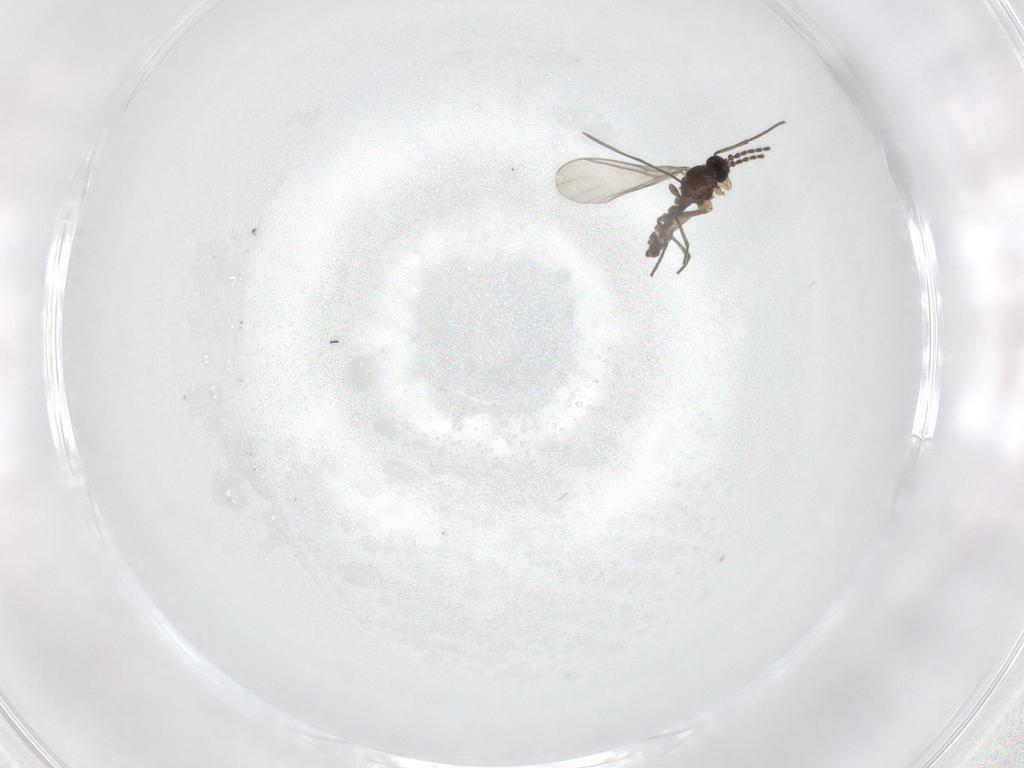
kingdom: Animalia
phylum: Arthropoda
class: Insecta
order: Diptera
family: Sciaridae
